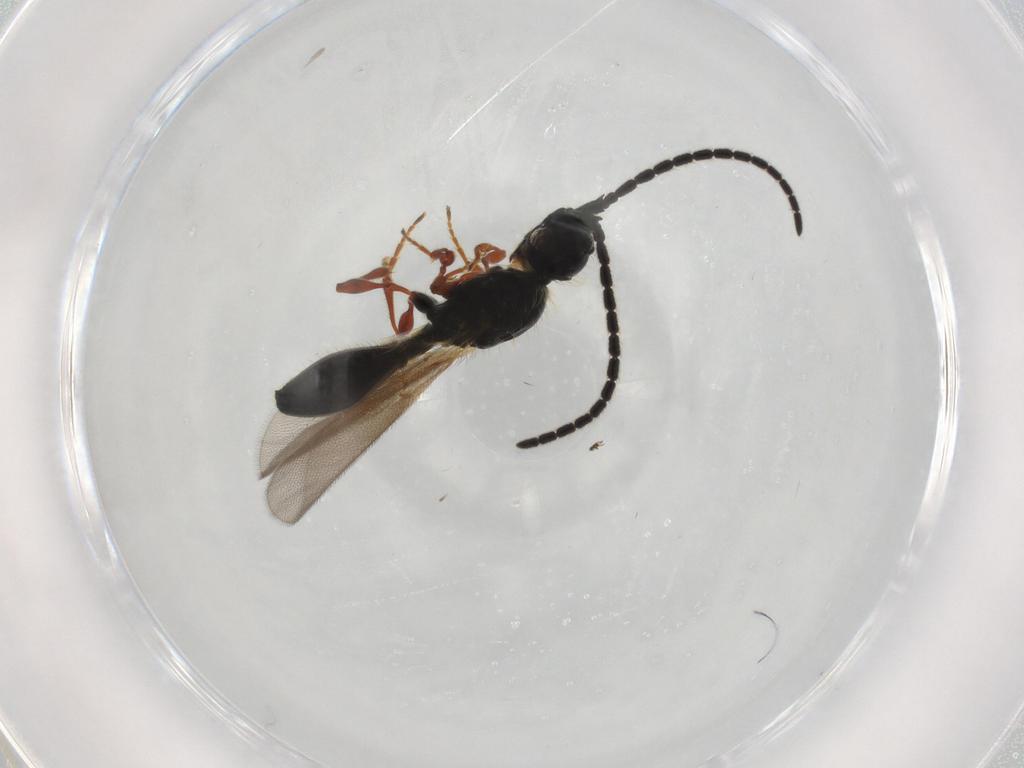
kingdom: Animalia
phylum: Arthropoda
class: Insecta
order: Hymenoptera
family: Diapriidae
